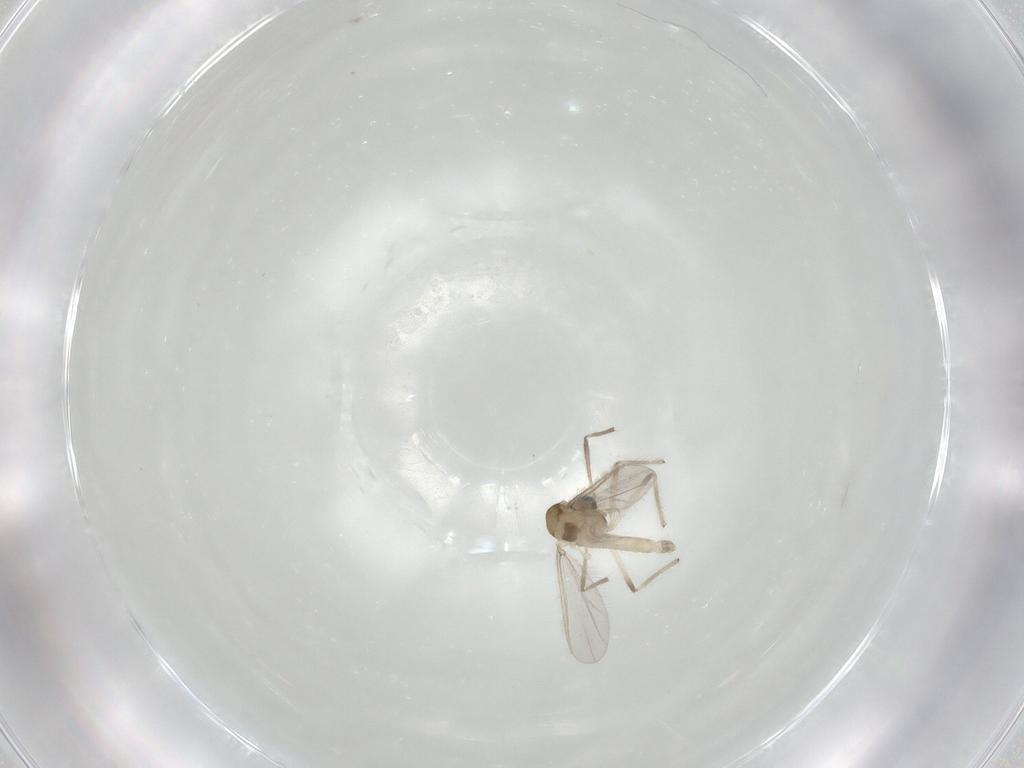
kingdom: Animalia
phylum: Arthropoda
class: Insecta
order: Diptera
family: Chironomidae
